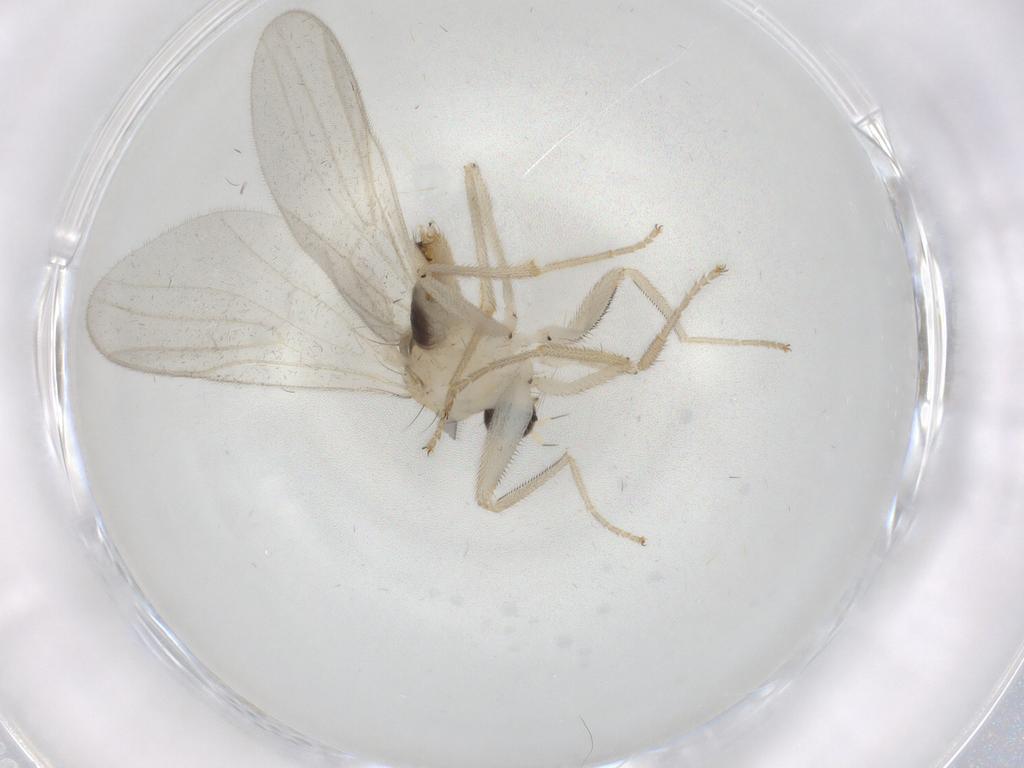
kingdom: Animalia
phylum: Arthropoda
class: Insecta
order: Diptera
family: Hybotidae
